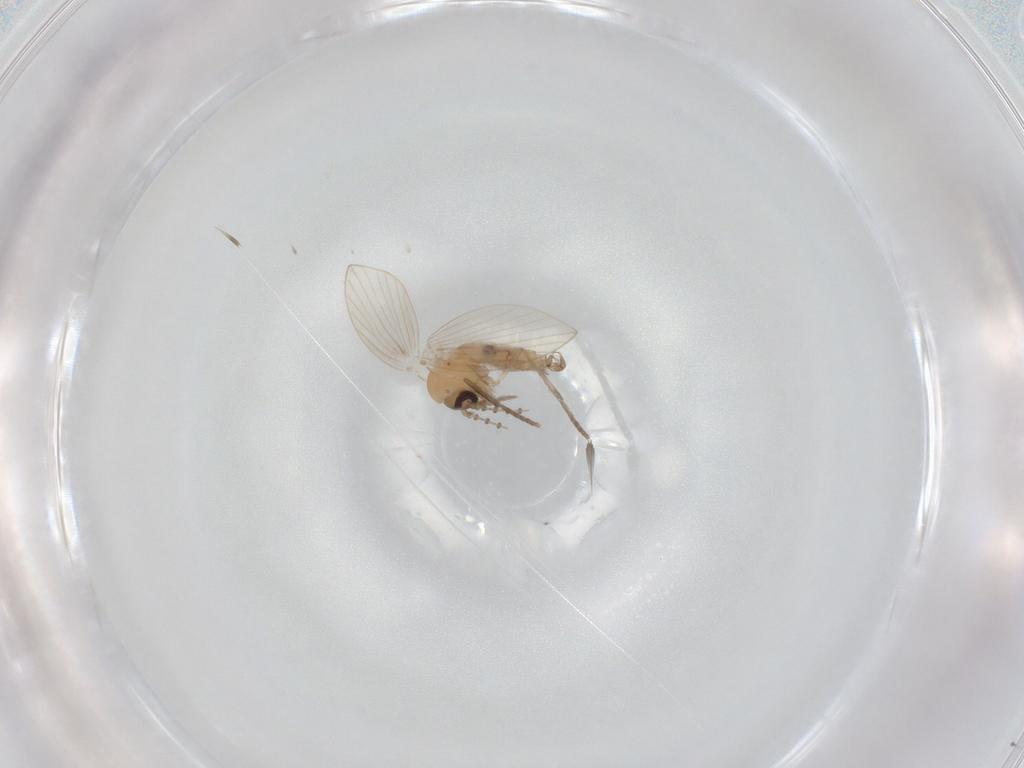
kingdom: Animalia
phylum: Arthropoda
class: Insecta
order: Diptera
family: Psychodidae
